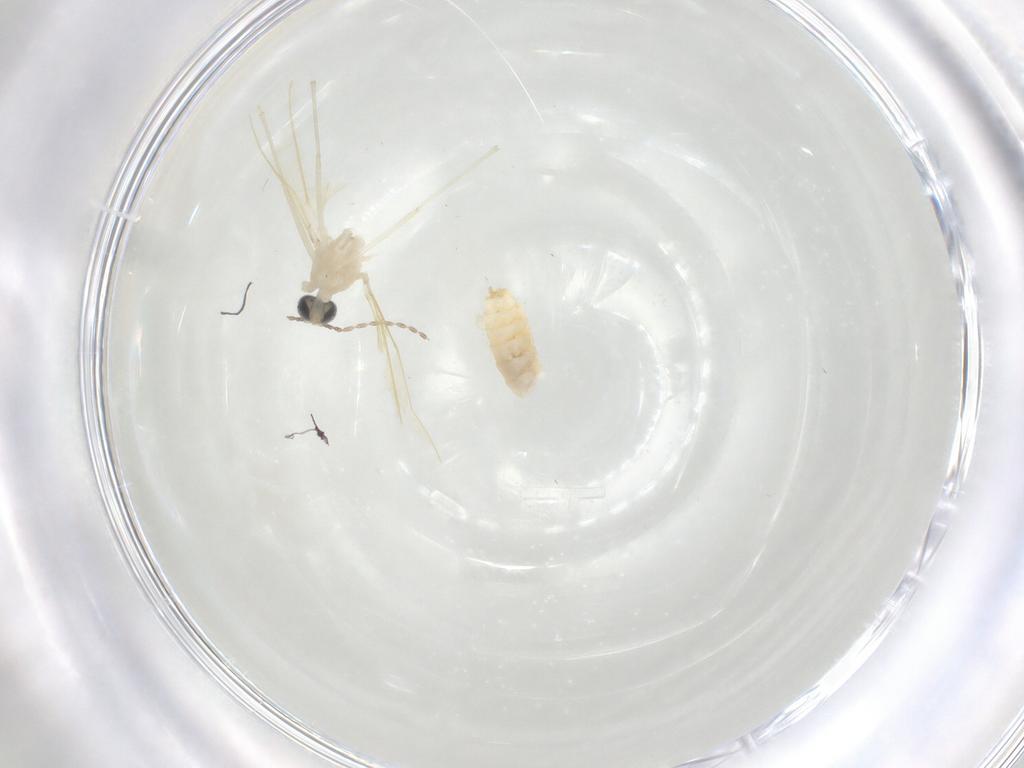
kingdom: Animalia
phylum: Arthropoda
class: Insecta
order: Diptera
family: Cecidomyiidae
